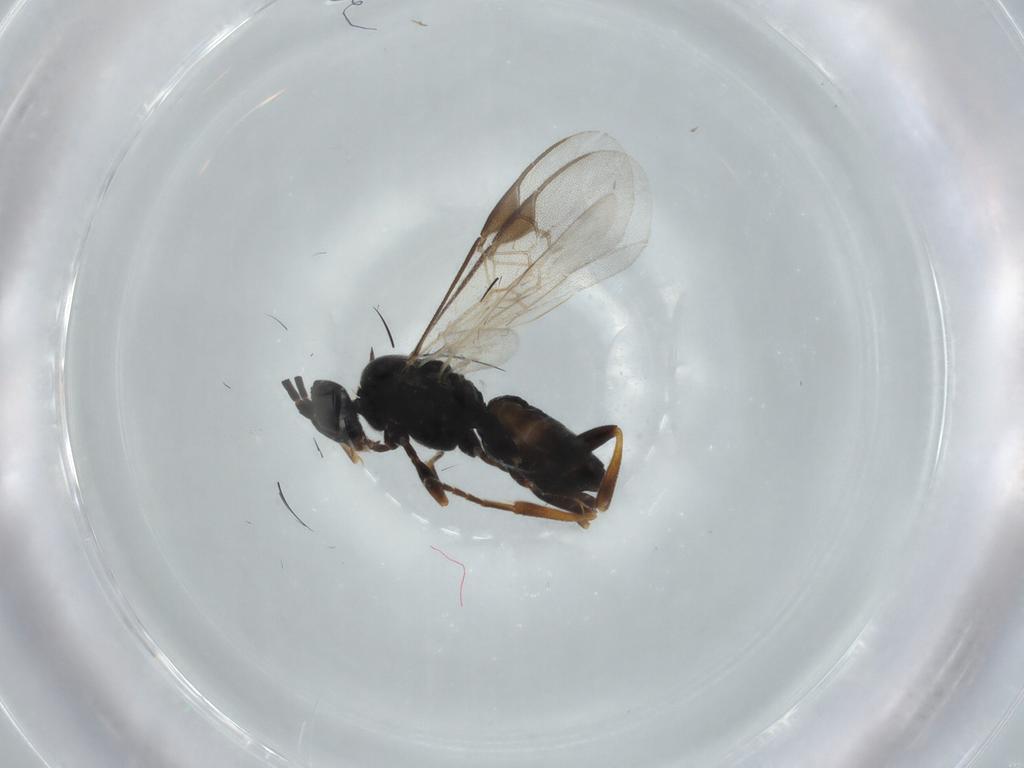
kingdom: Animalia
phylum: Arthropoda
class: Insecta
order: Hymenoptera
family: Braconidae
